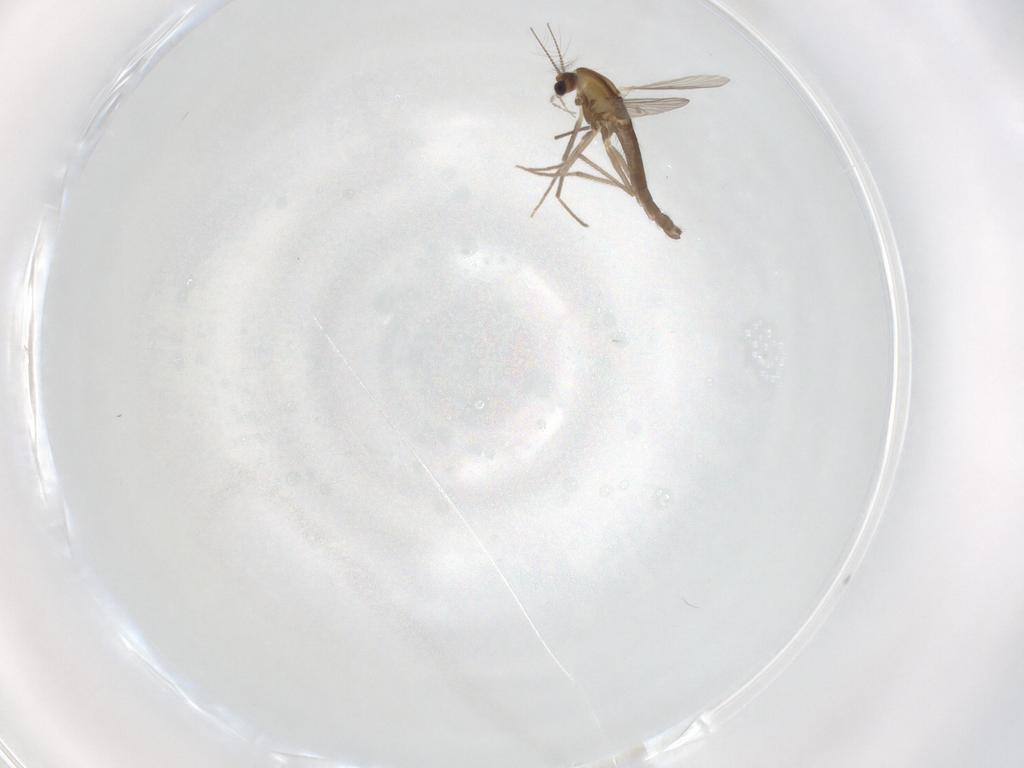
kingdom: Animalia
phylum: Arthropoda
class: Insecta
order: Diptera
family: Chironomidae
